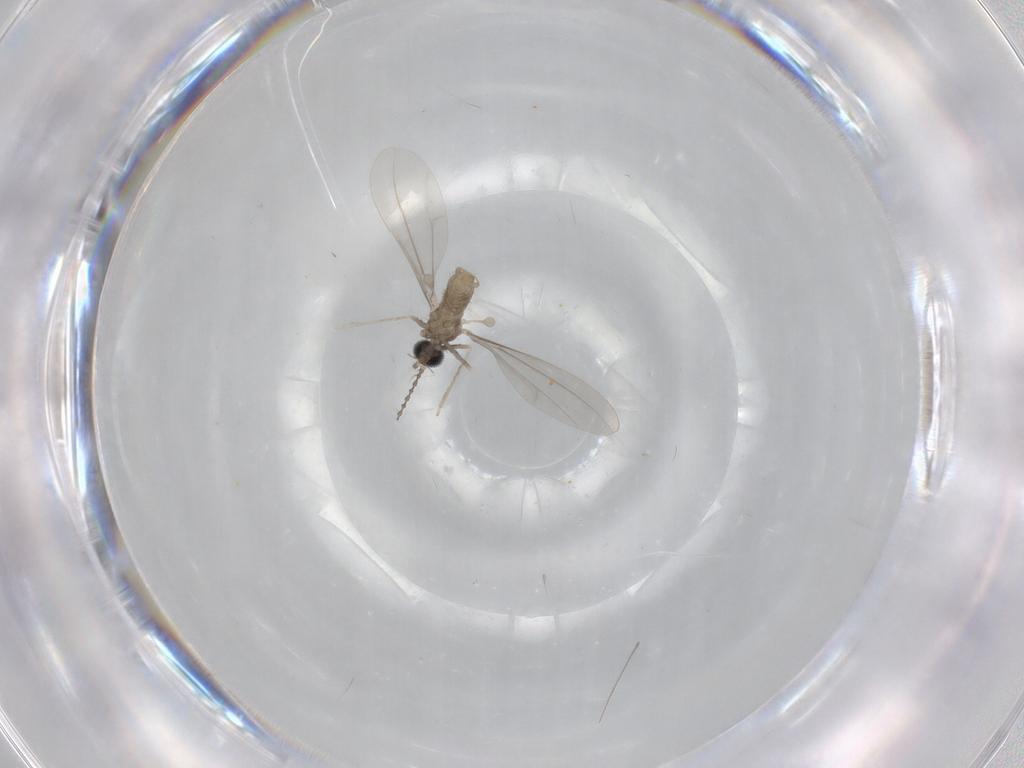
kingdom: Animalia
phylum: Arthropoda
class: Insecta
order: Diptera
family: Cecidomyiidae
